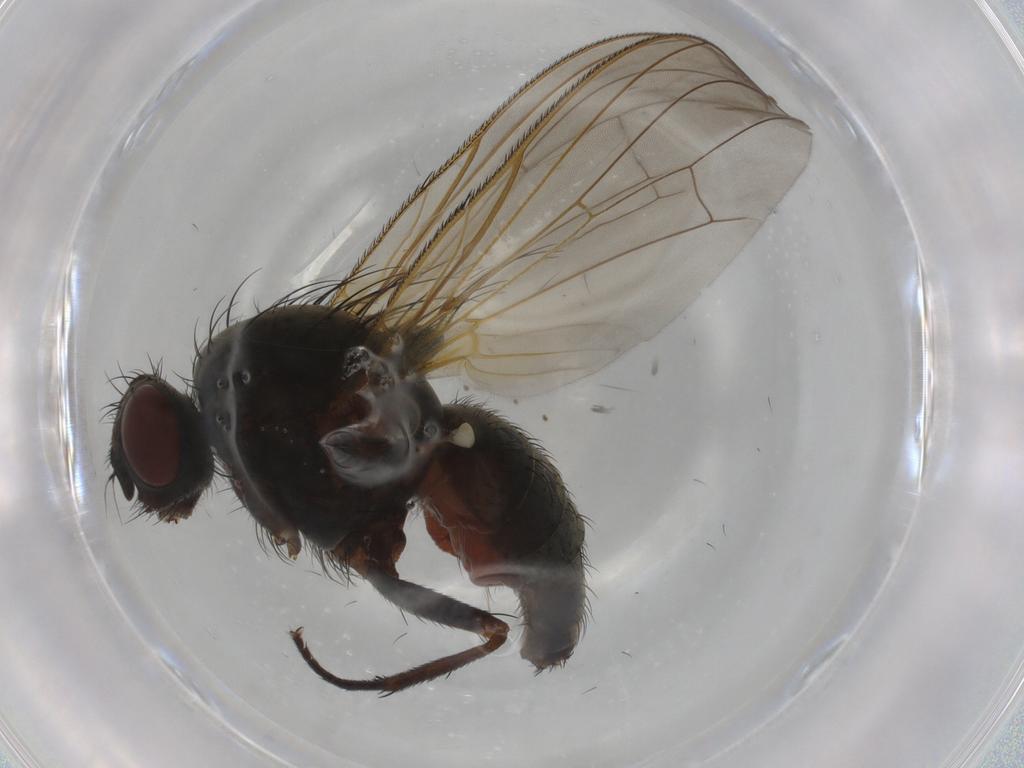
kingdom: Animalia
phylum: Arthropoda
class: Insecta
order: Diptera
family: Anthomyiidae
